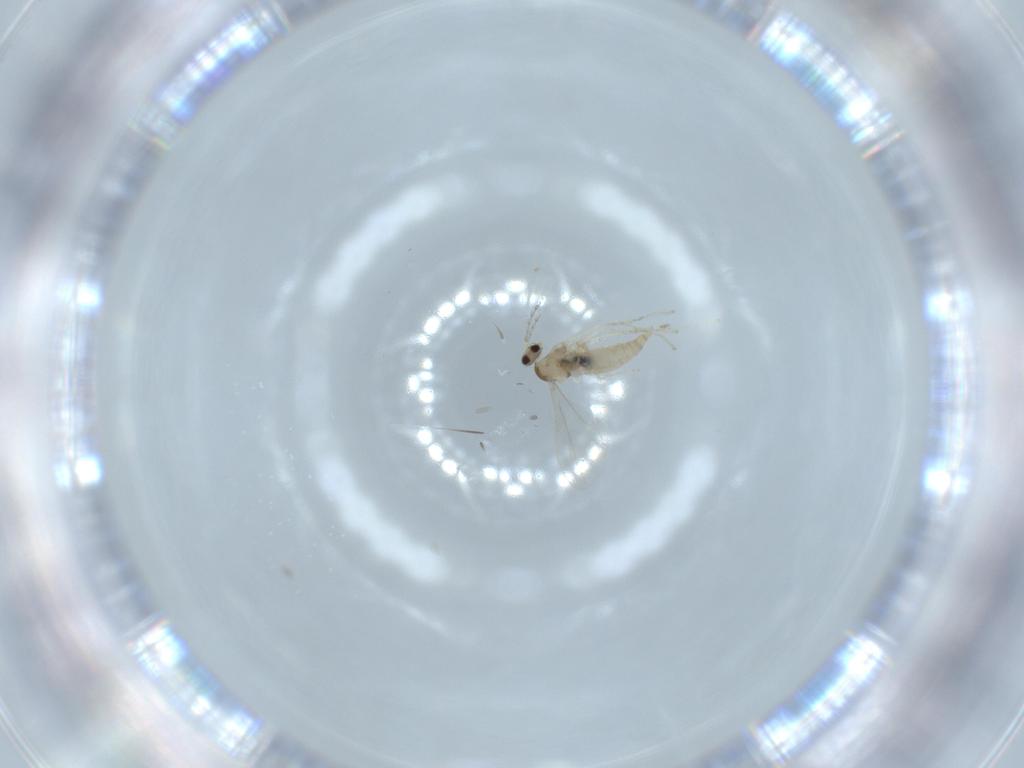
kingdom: Animalia
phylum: Arthropoda
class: Insecta
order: Diptera
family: Cecidomyiidae
